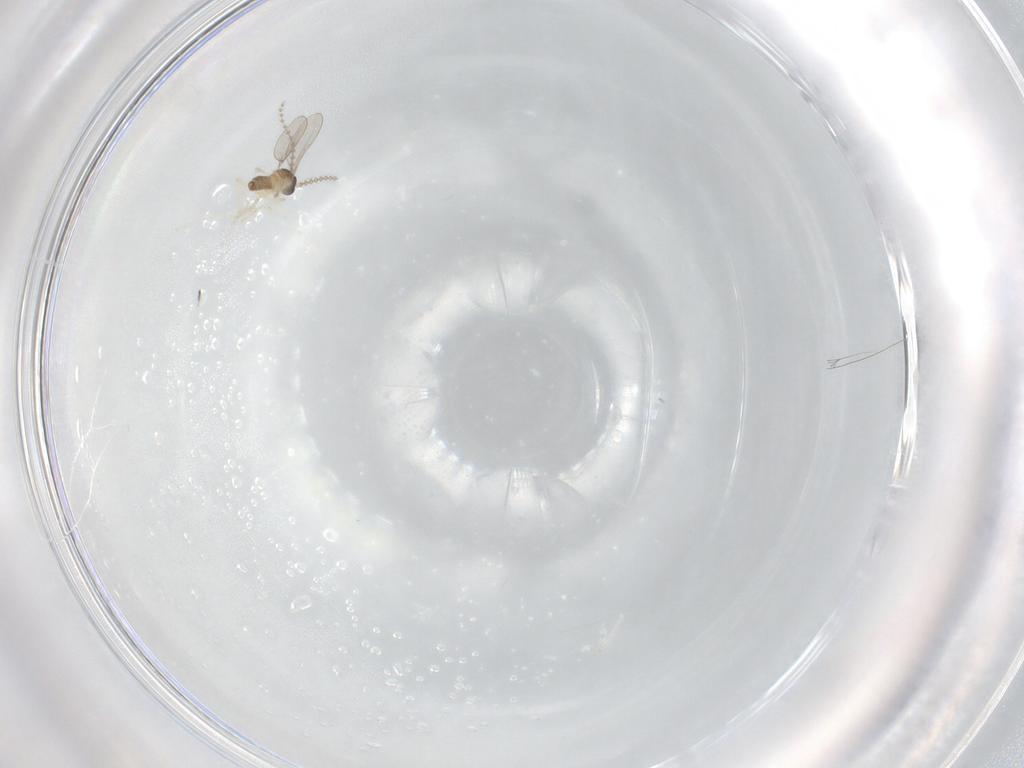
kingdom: Animalia
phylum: Arthropoda
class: Insecta
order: Diptera
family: Cecidomyiidae
